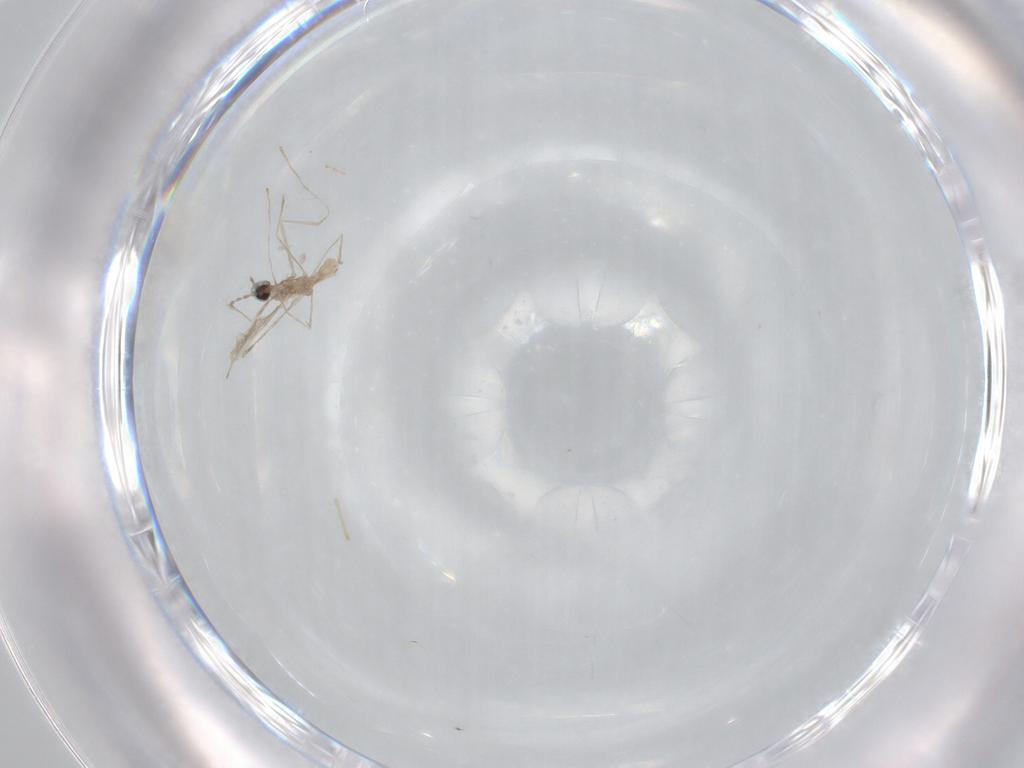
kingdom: Animalia
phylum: Arthropoda
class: Insecta
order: Diptera
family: Cecidomyiidae
